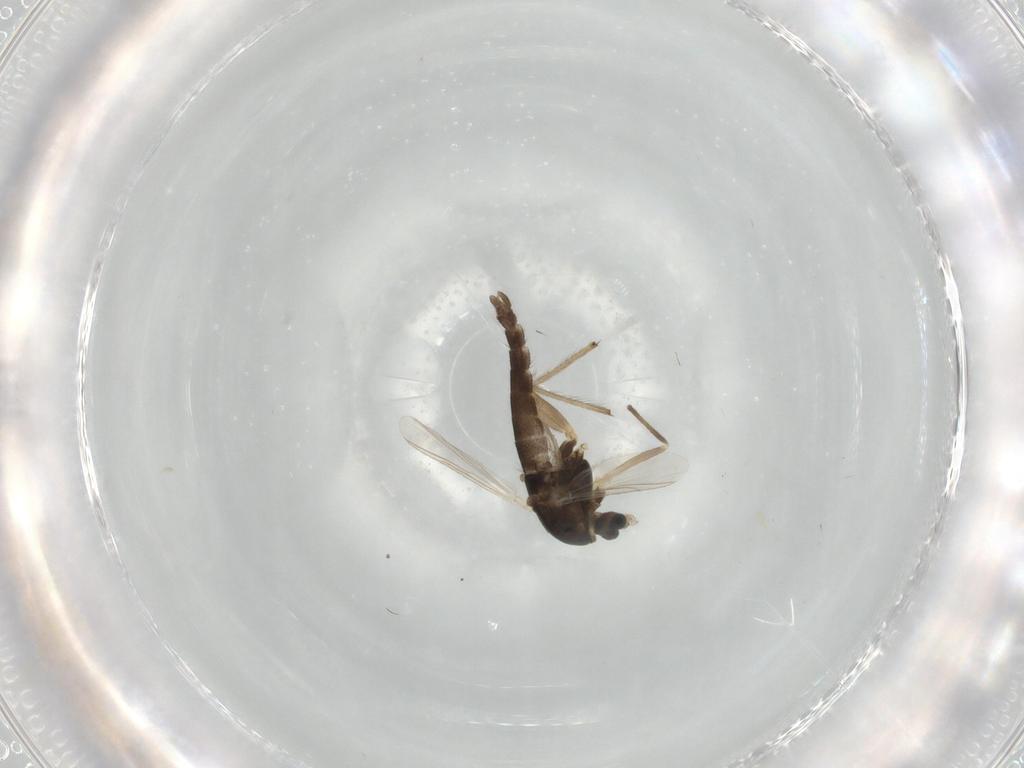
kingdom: Animalia
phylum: Arthropoda
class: Insecta
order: Diptera
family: Chironomidae
